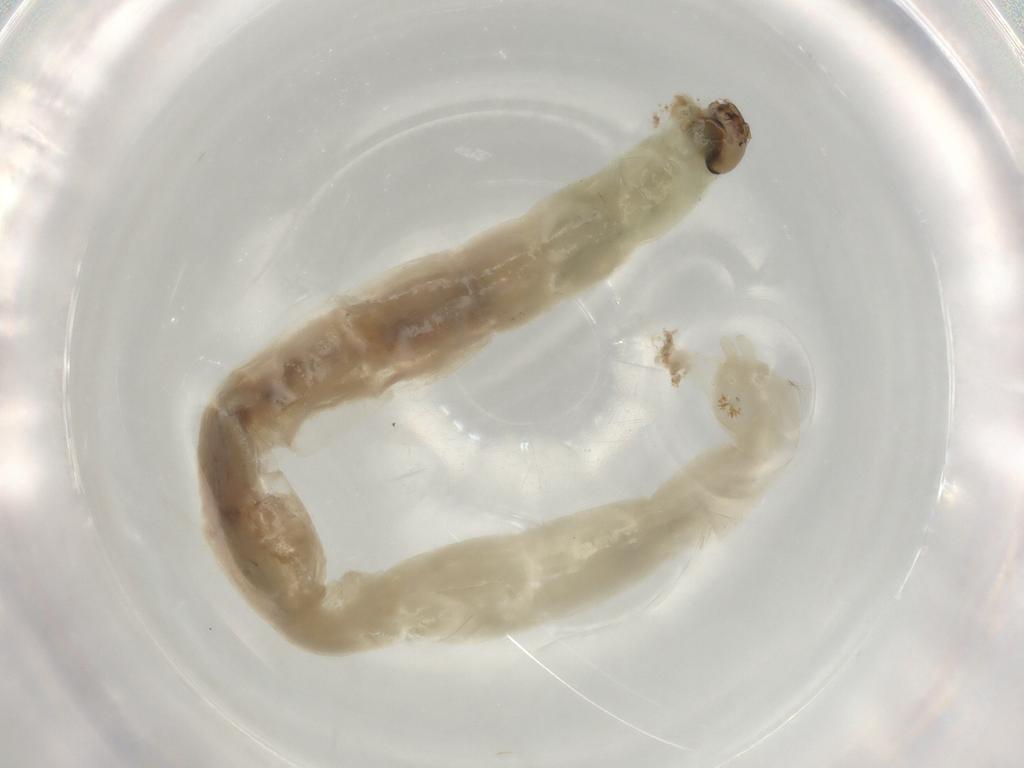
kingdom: Animalia
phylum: Arthropoda
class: Insecta
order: Diptera
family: Chironomidae
